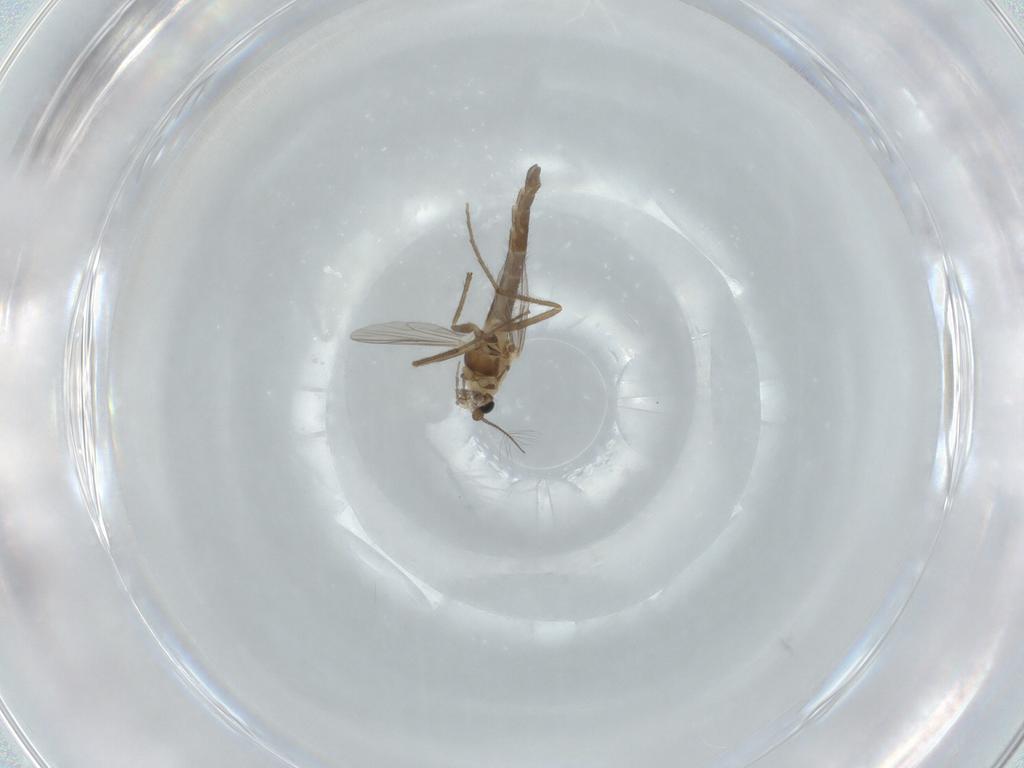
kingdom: Animalia
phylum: Arthropoda
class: Insecta
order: Diptera
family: Chironomidae
